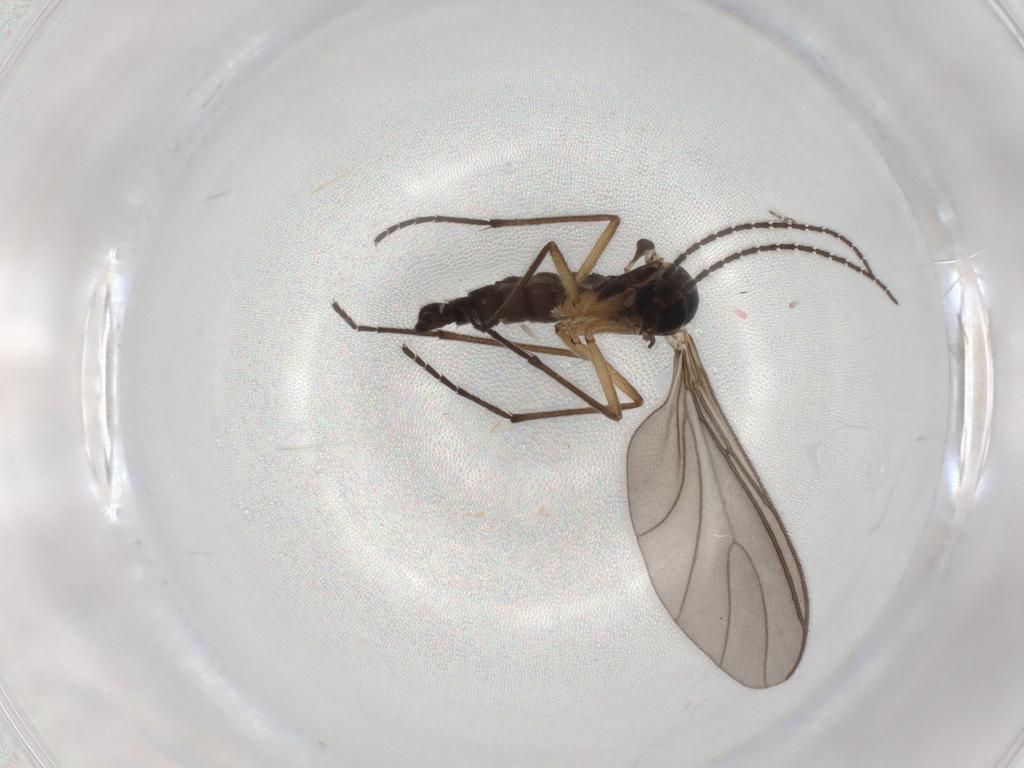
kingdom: Animalia
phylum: Arthropoda
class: Insecta
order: Diptera
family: Sciaridae
